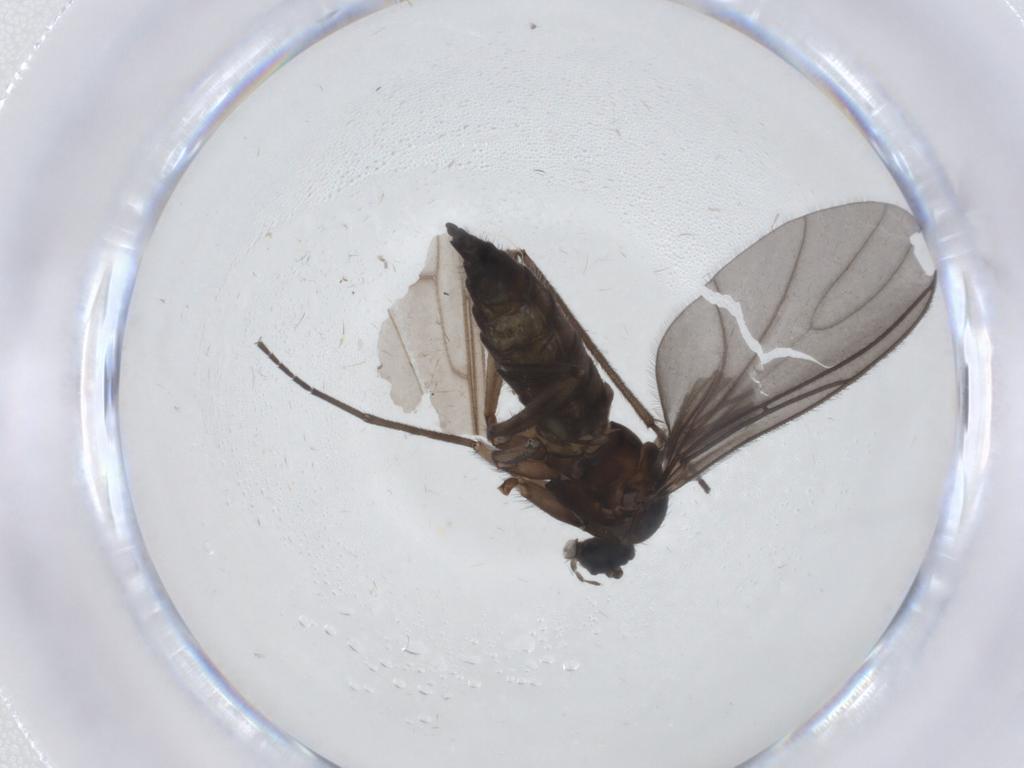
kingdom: Animalia
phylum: Arthropoda
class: Insecta
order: Diptera
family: Sciaridae
